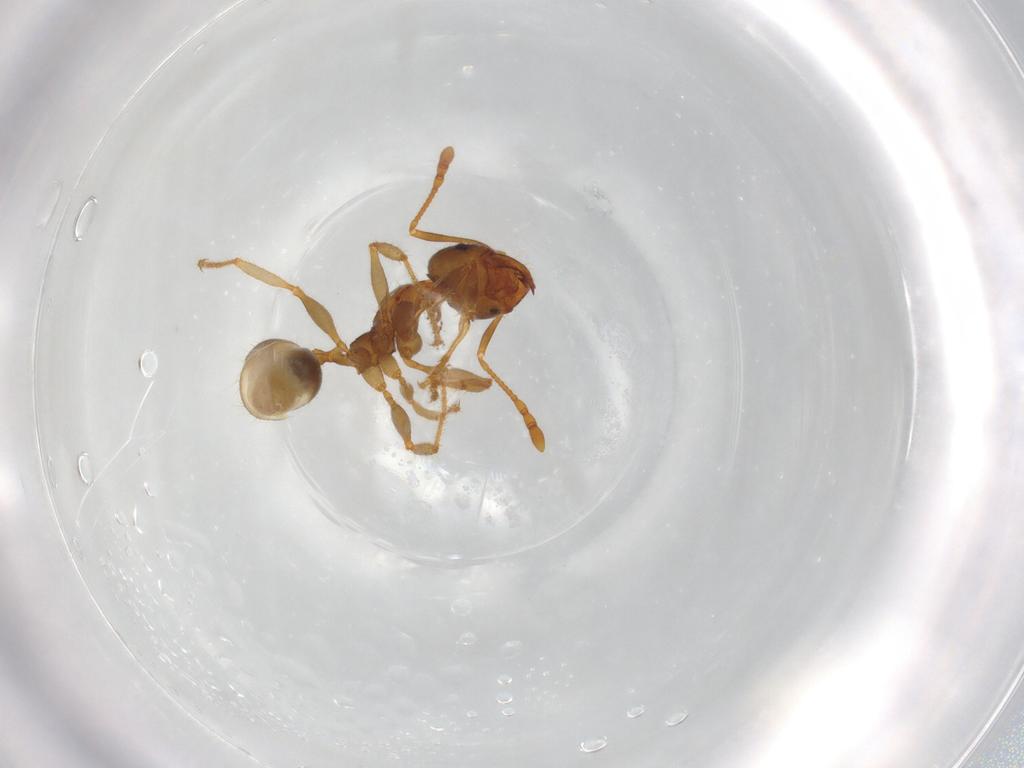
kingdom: Animalia
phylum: Arthropoda
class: Insecta
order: Hymenoptera
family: Formicidae
